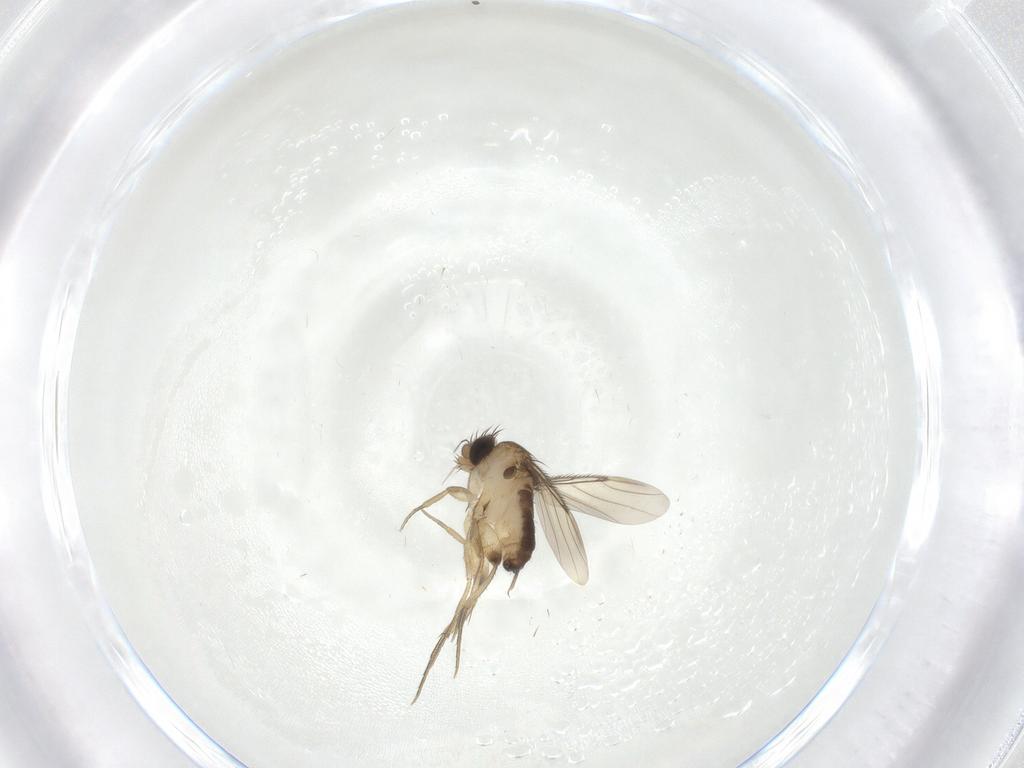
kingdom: Animalia
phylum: Arthropoda
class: Insecta
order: Diptera
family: Phoridae
